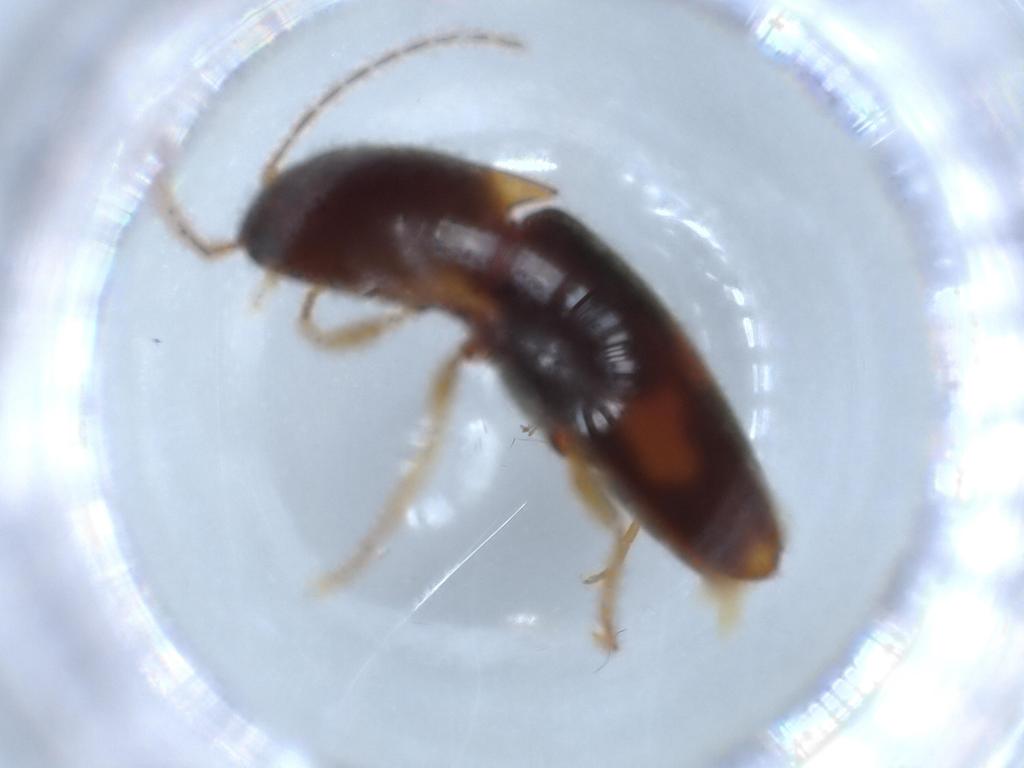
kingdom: Animalia
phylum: Arthropoda
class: Insecta
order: Coleoptera
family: Elateridae
